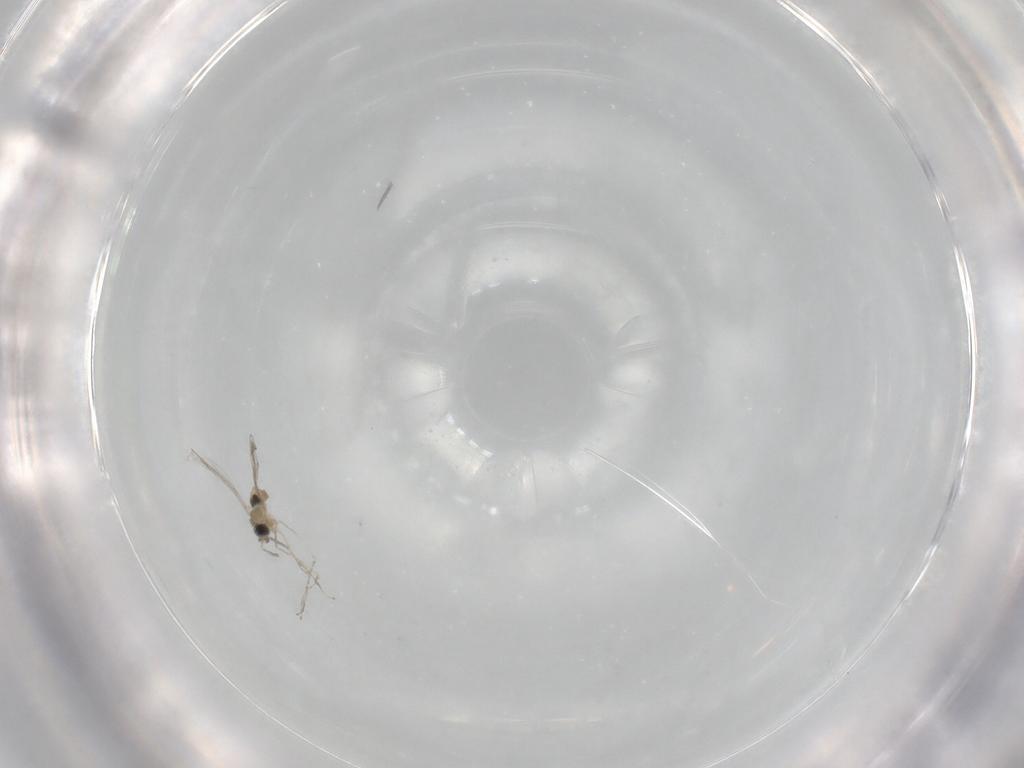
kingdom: Animalia
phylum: Arthropoda
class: Insecta
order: Diptera
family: Cecidomyiidae
